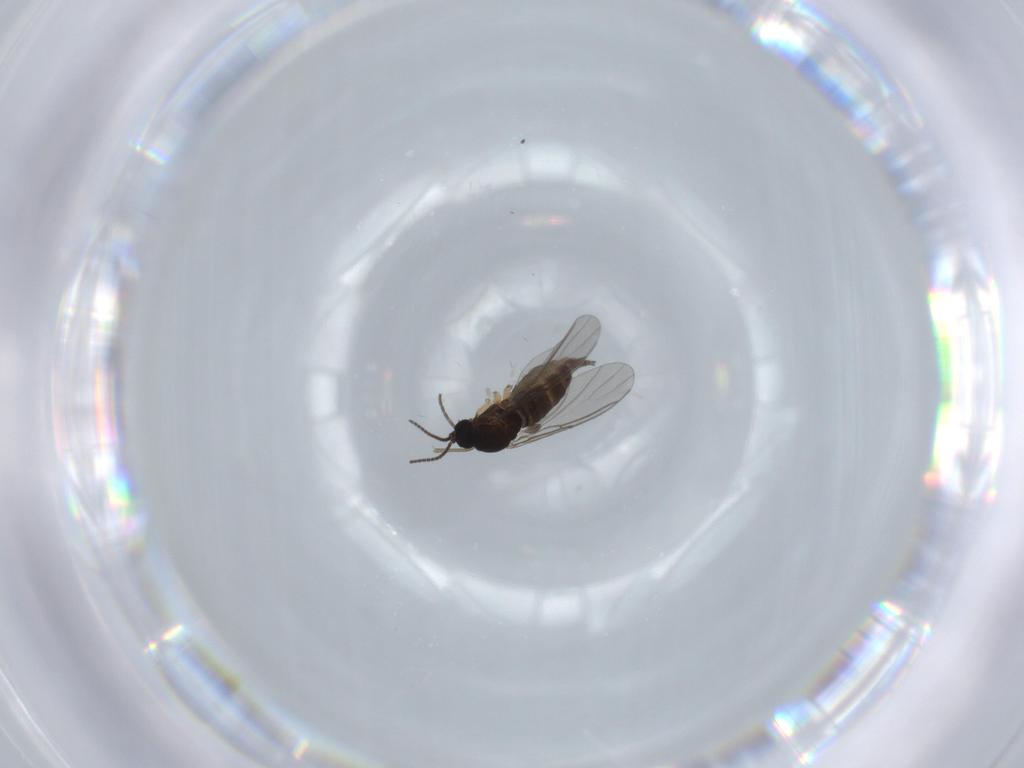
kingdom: Animalia
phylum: Arthropoda
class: Insecta
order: Diptera
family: Sciaridae
